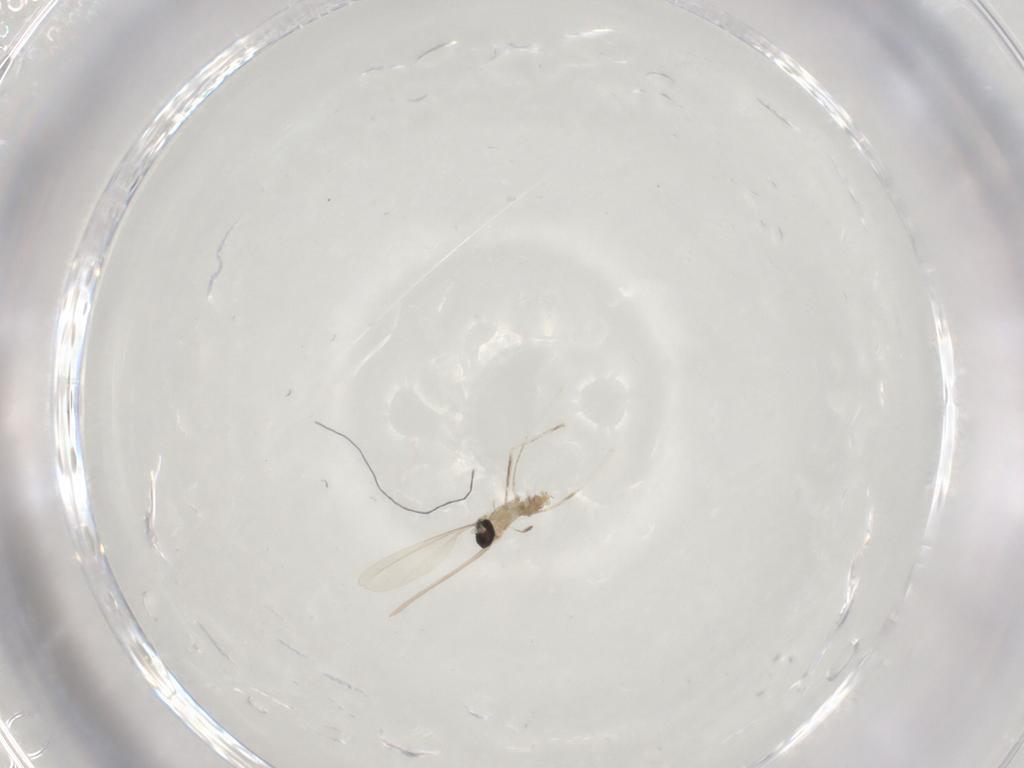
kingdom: Animalia
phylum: Arthropoda
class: Insecta
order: Diptera
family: Cecidomyiidae
